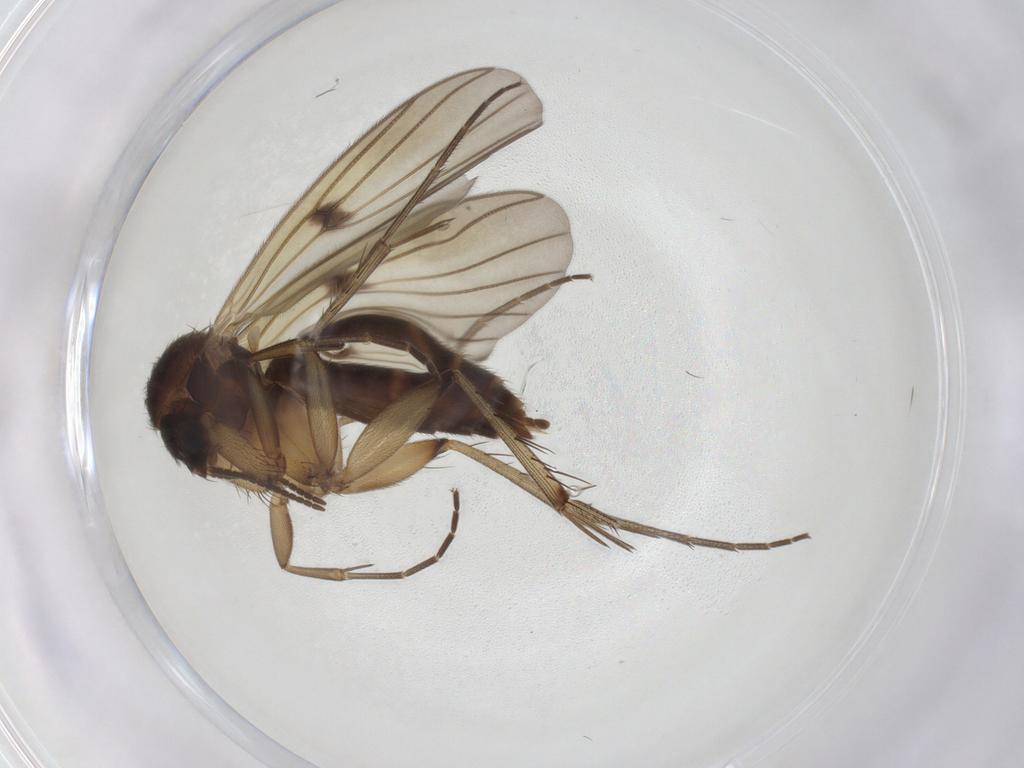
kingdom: Animalia
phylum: Arthropoda
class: Insecta
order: Diptera
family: Mycetophilidae
